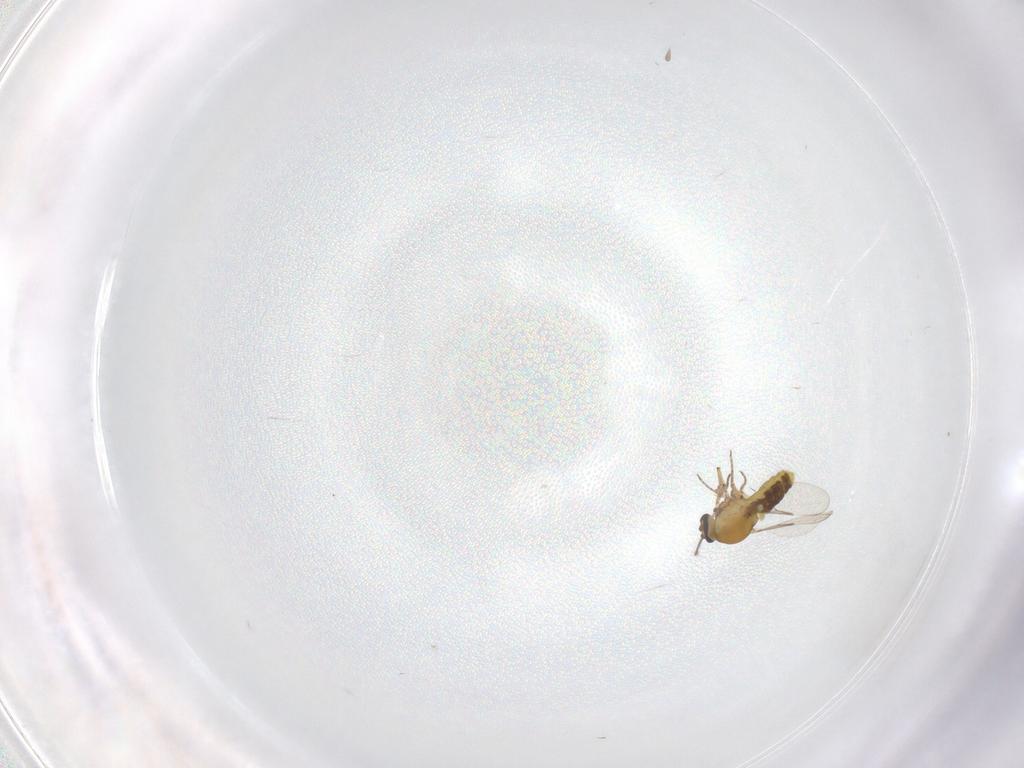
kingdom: Animalia
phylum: Arthropoda
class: Insecta
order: Diptera
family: Ceratopogonidae
